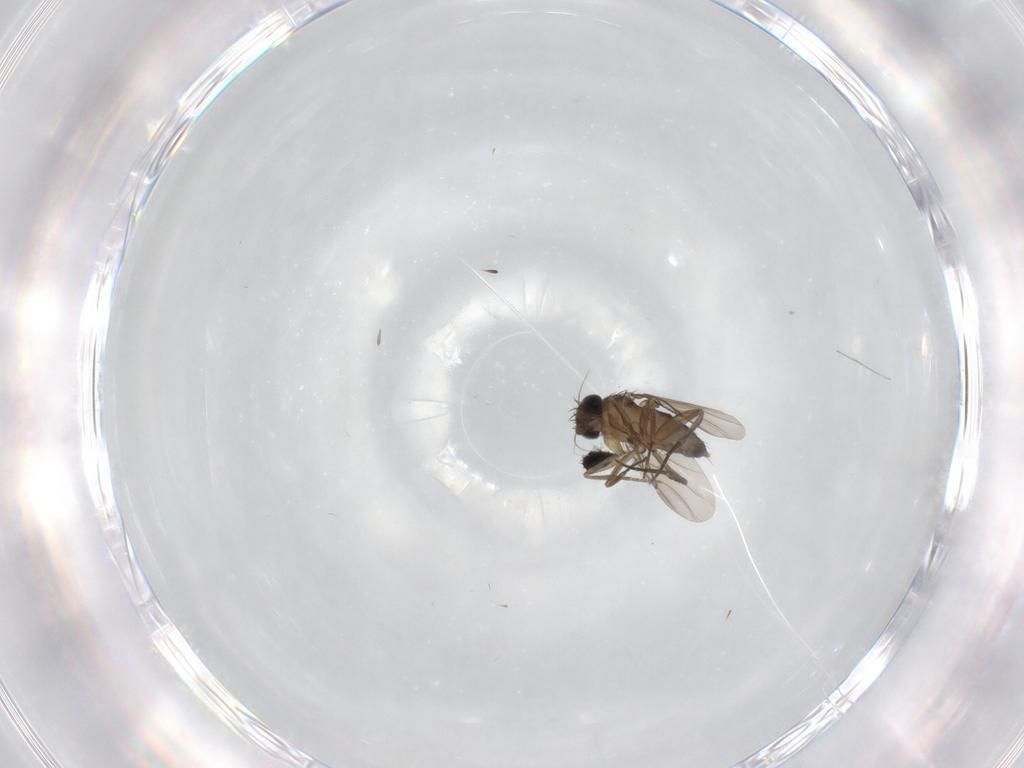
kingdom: Animalia
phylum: Arthropoda
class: Insecta
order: Diptera
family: Phoridae
